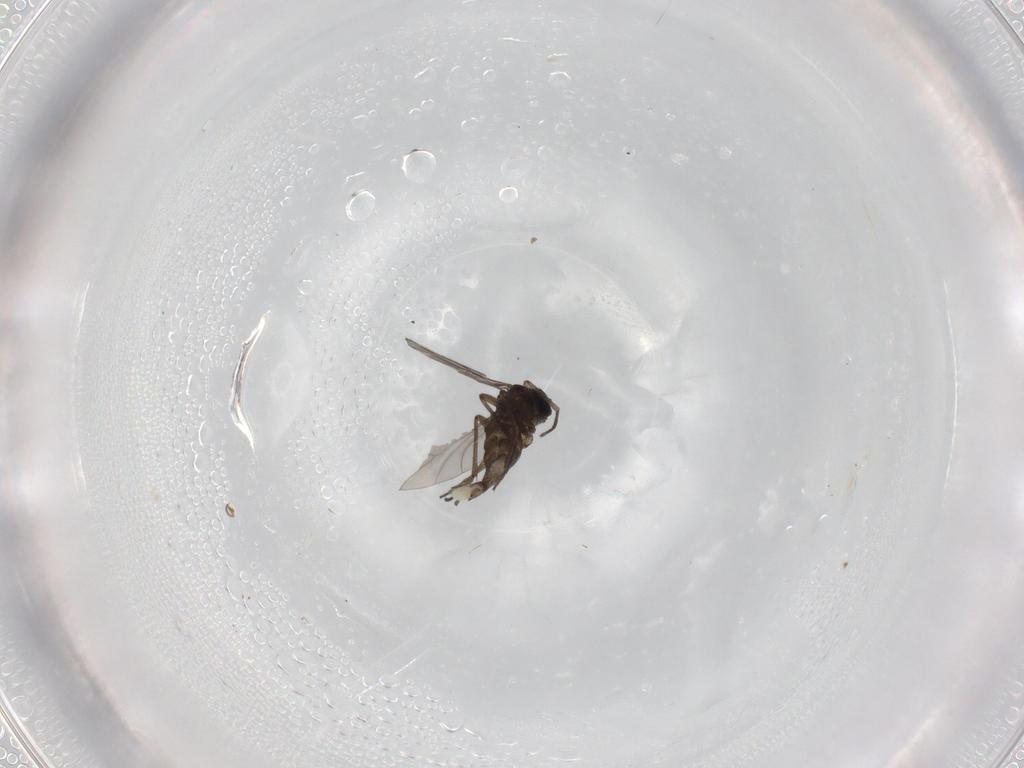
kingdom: Animalia
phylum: Arthropoda
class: Insecta
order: Diptera
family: Sciaridae
